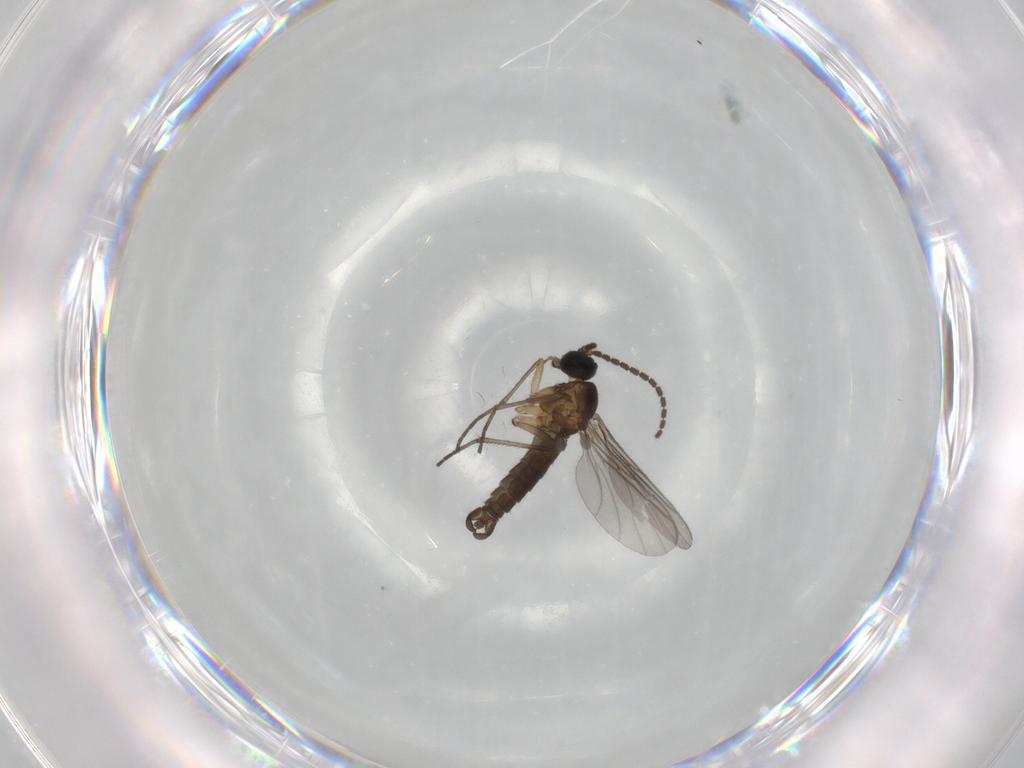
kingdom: Animalia
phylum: Arthropoda
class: Insecta
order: Diptera
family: Sciaridae
